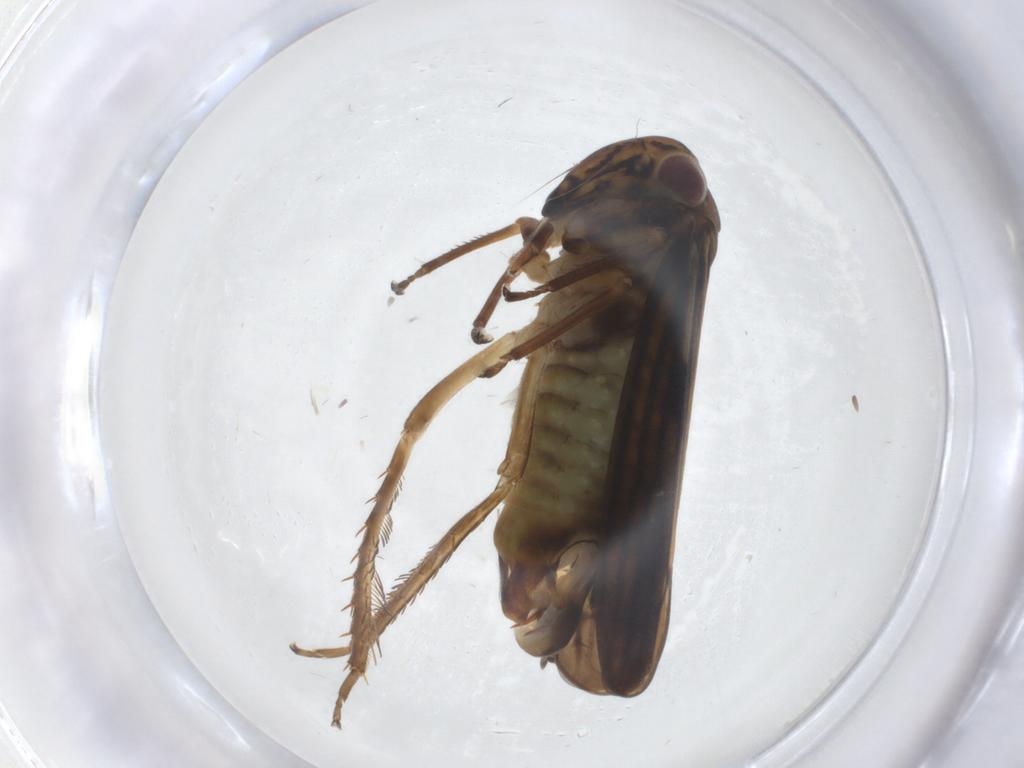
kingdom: Animalia
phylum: Arthropoda
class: Insecta
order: Hemiptera
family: Cicadellidae
